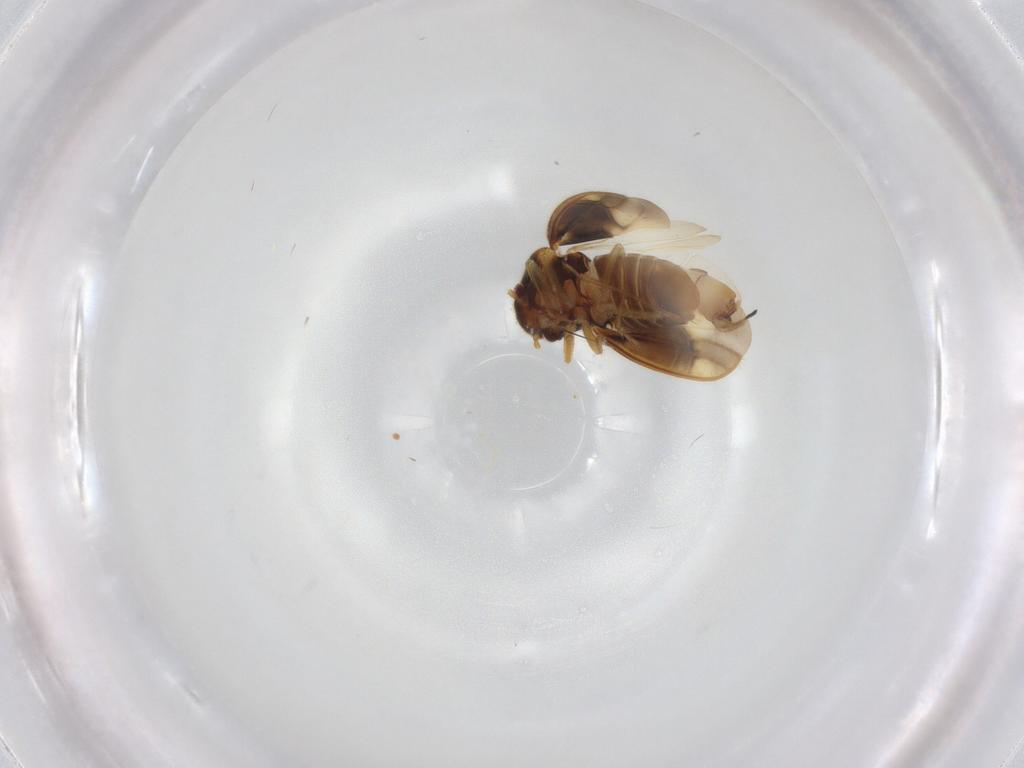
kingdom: Animalia
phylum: Arthropoda
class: Insecta
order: Hemiptera
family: Schizopteridae
